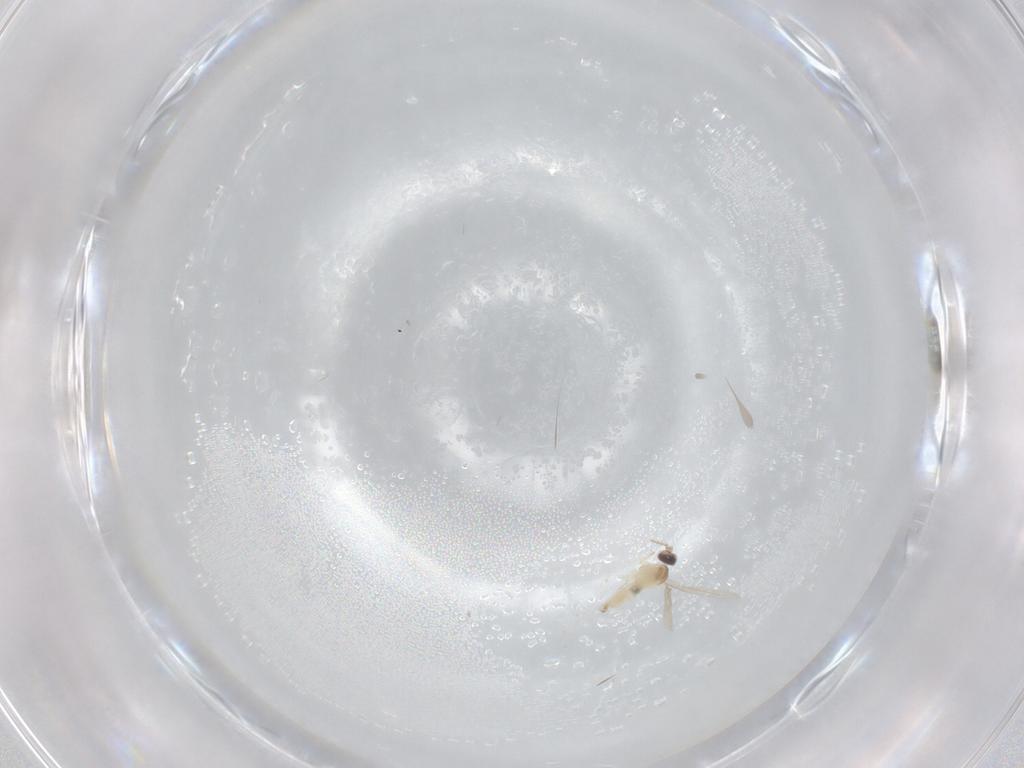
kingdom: Animalia
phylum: Arthropoda
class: Insecta
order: Diptera
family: Cecidomyiidae
